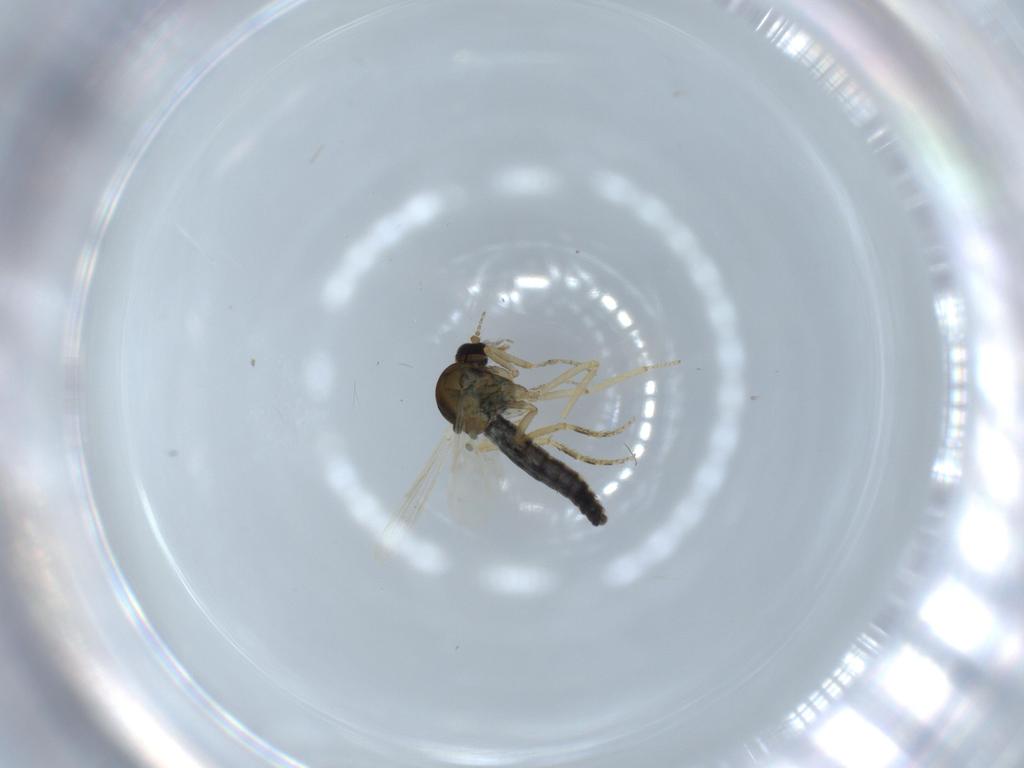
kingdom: Animalia
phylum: Arthropoda
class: Insecta
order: Diptera
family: Ceratopogonidae
